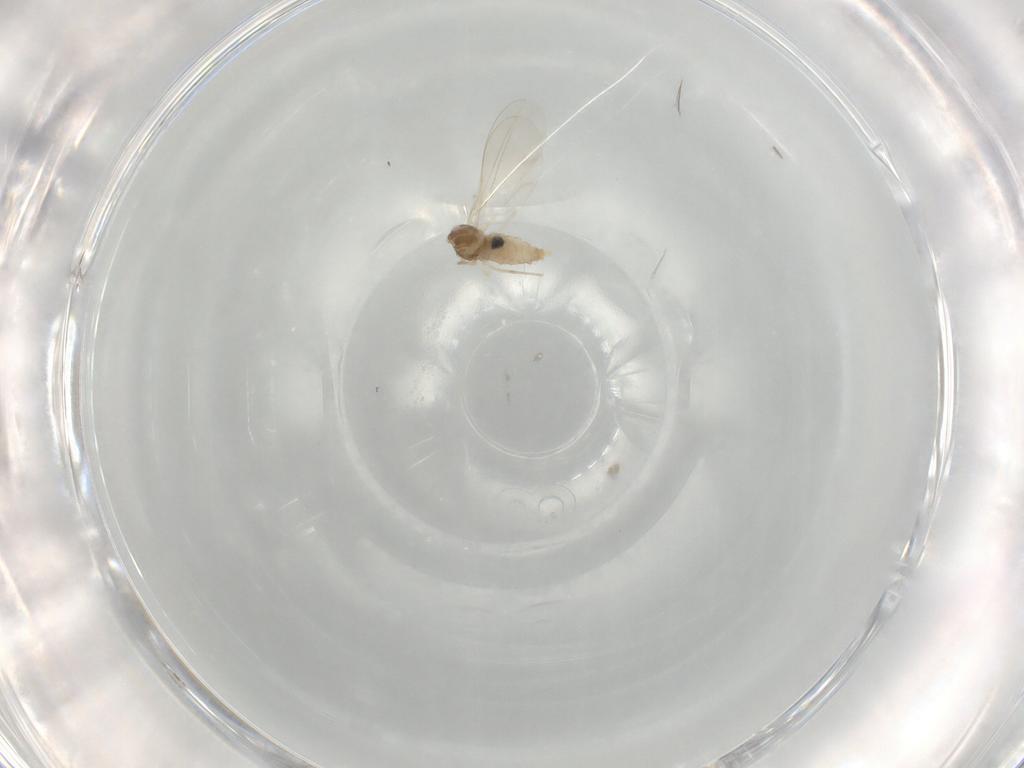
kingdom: Animalia
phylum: Arthropoda
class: Insecta
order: Diptera
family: Cecidomyiidae
